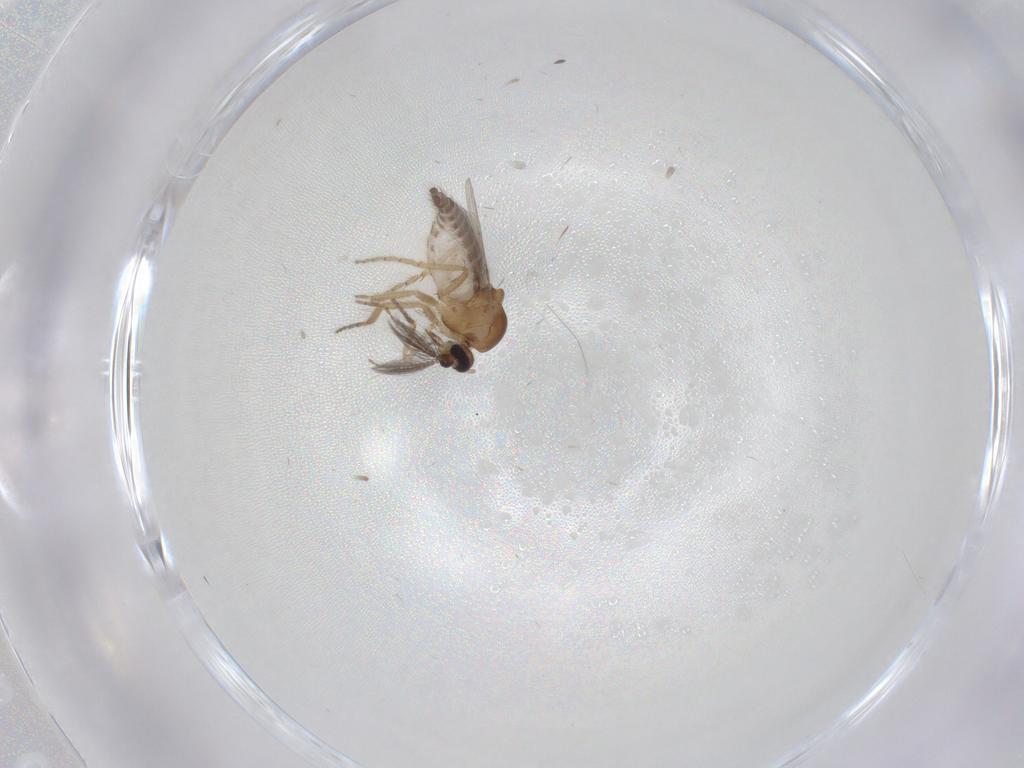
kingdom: Animalia
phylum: Arthropoda
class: Insecta
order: Diptera
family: Ceratopogonidae
